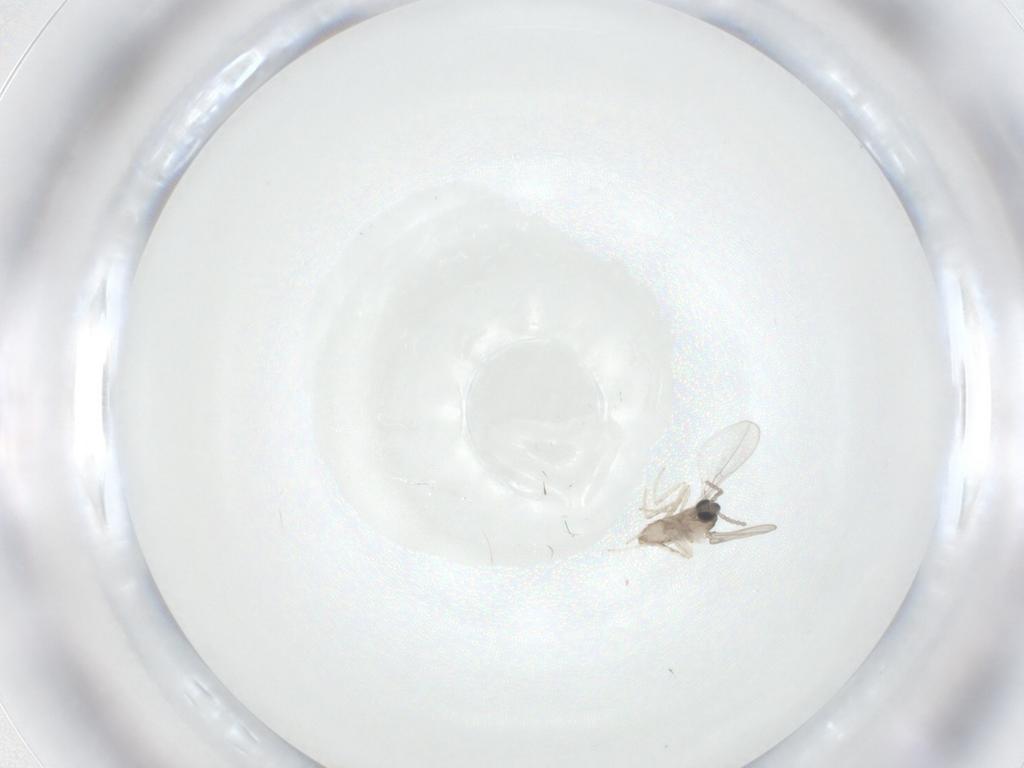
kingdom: Animalia
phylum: Arthropoda
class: Insecta
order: Diptera
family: Cecidomyiidae
